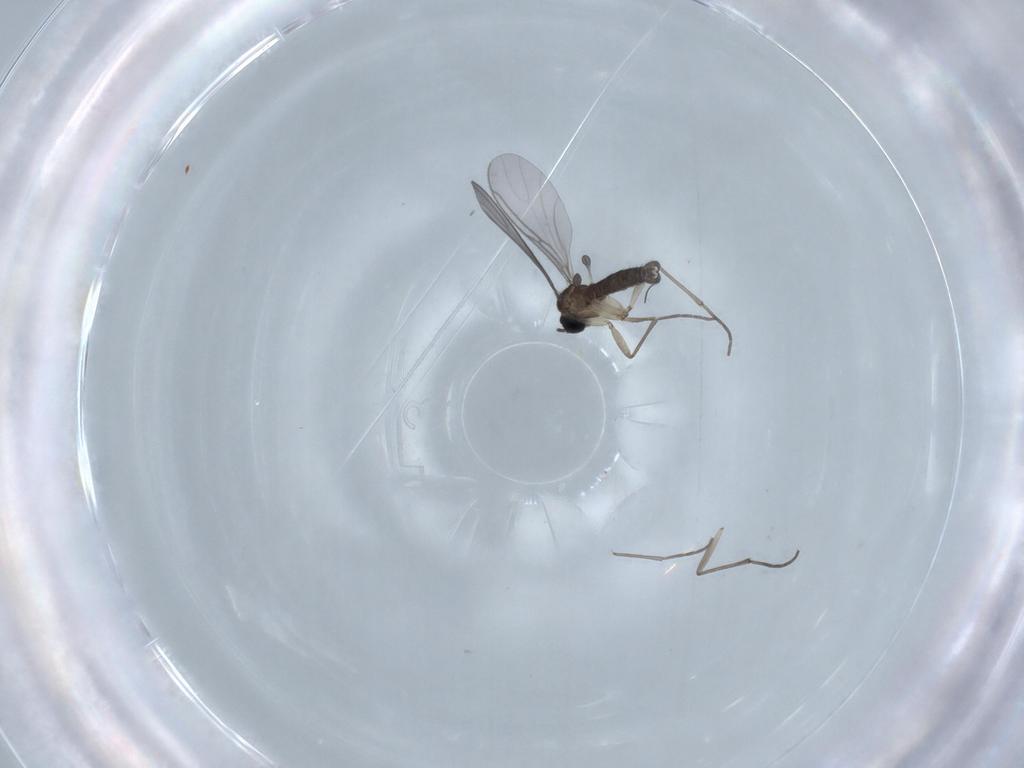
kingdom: Animalia
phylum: Arthropoda
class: Insecta
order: Diptera
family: Sciaridae
